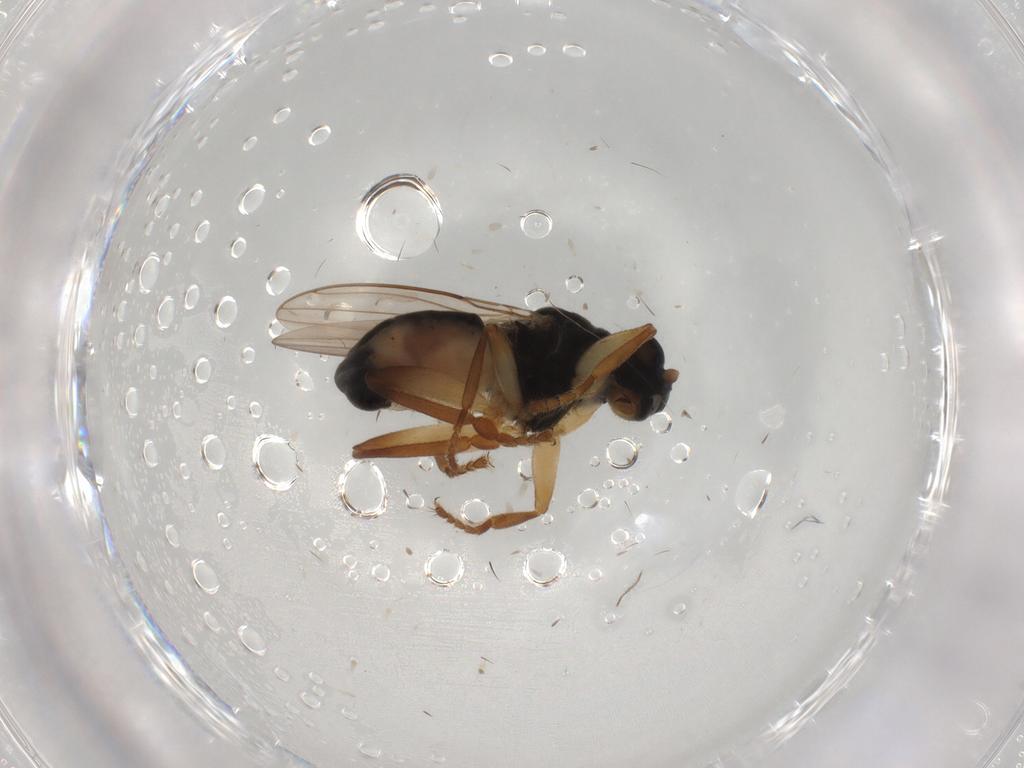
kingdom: Animalia
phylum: Arthropoda
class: Insecta
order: Diptera
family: Sphaeroceridae
